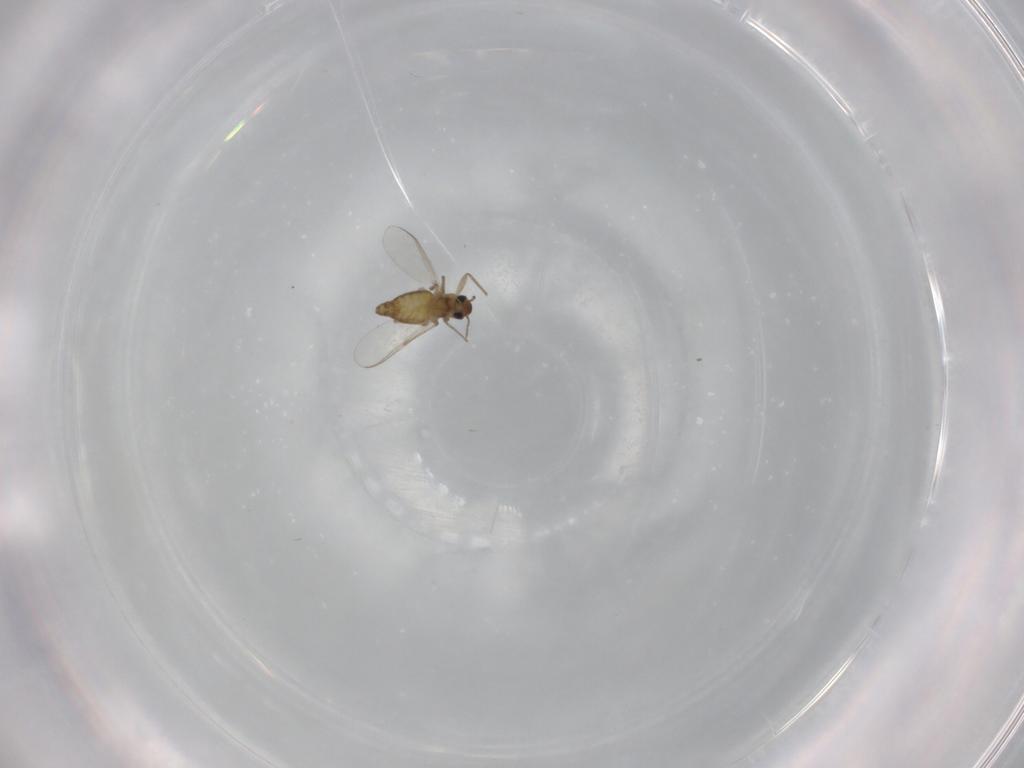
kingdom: Animalia
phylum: Arthropoda
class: Insecta
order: Diptera
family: Chironomidae
